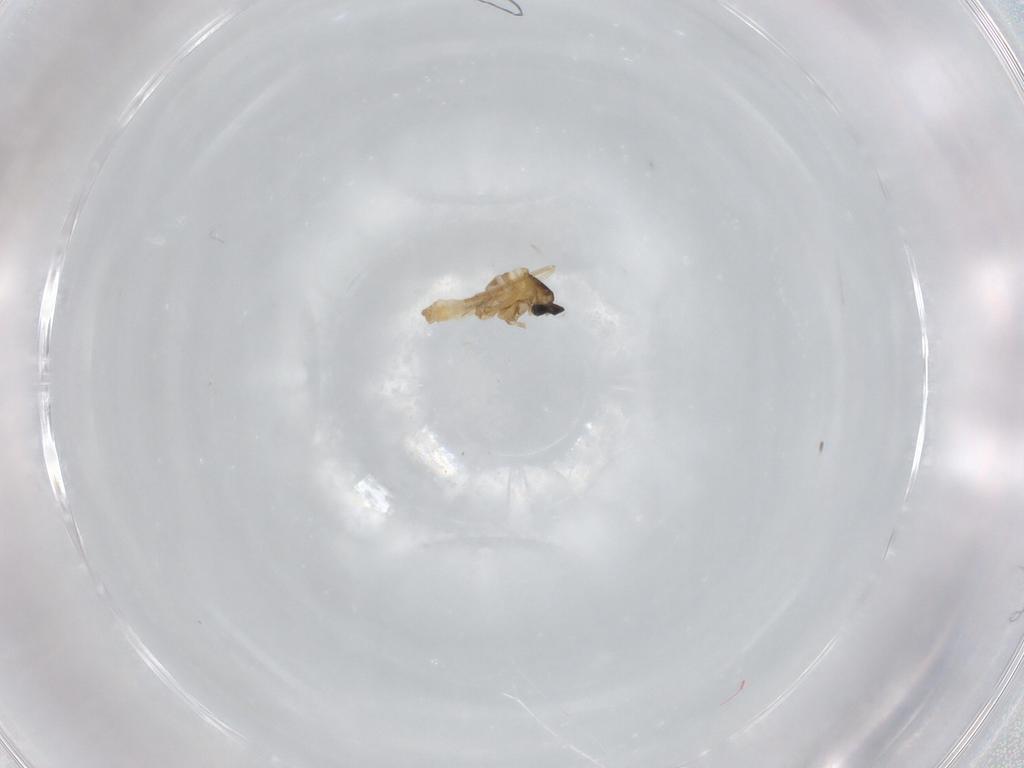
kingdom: Animalia
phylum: Arthropoda
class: Insecta
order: Diptera
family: Cecidomyiidae
